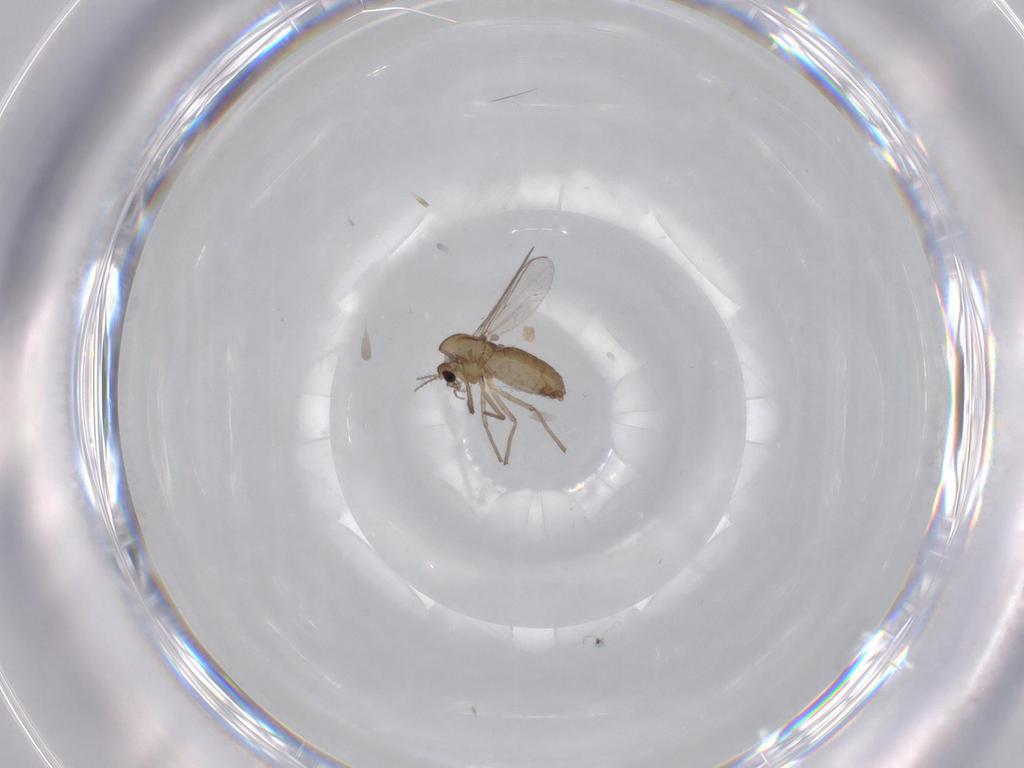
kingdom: Animalia
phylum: Arthropoda
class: Insecta
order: Diptera
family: Chironomidae
